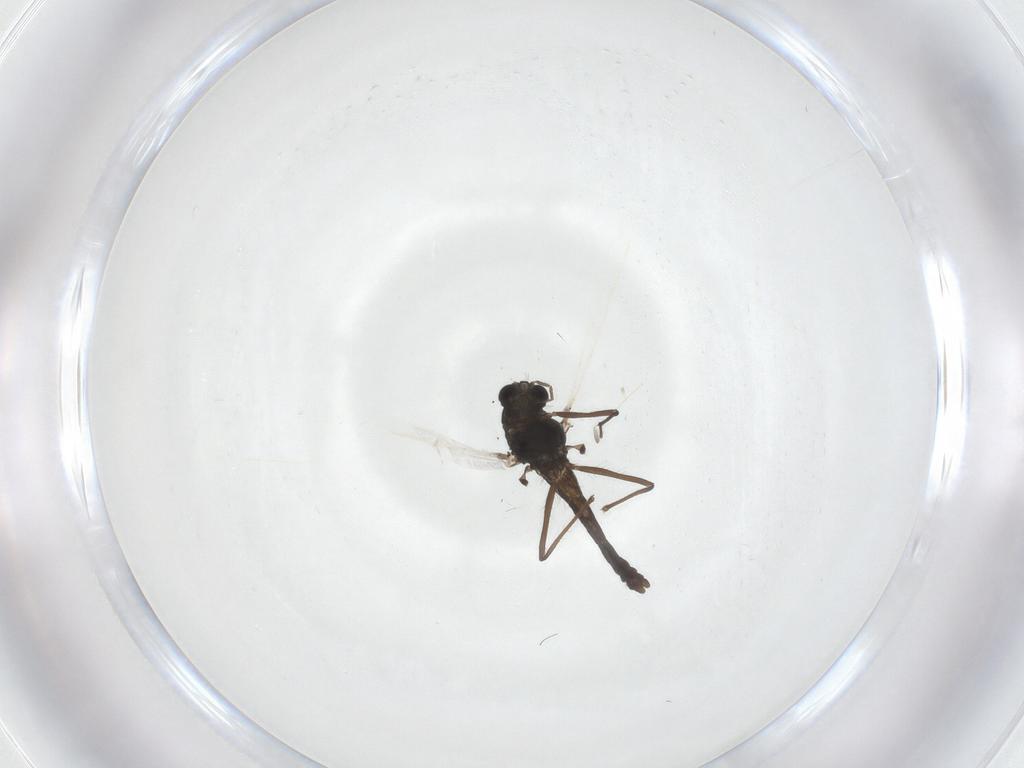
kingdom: Animalia
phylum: Arthropoda
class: Insecta
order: Diptera
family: Chironomidae
